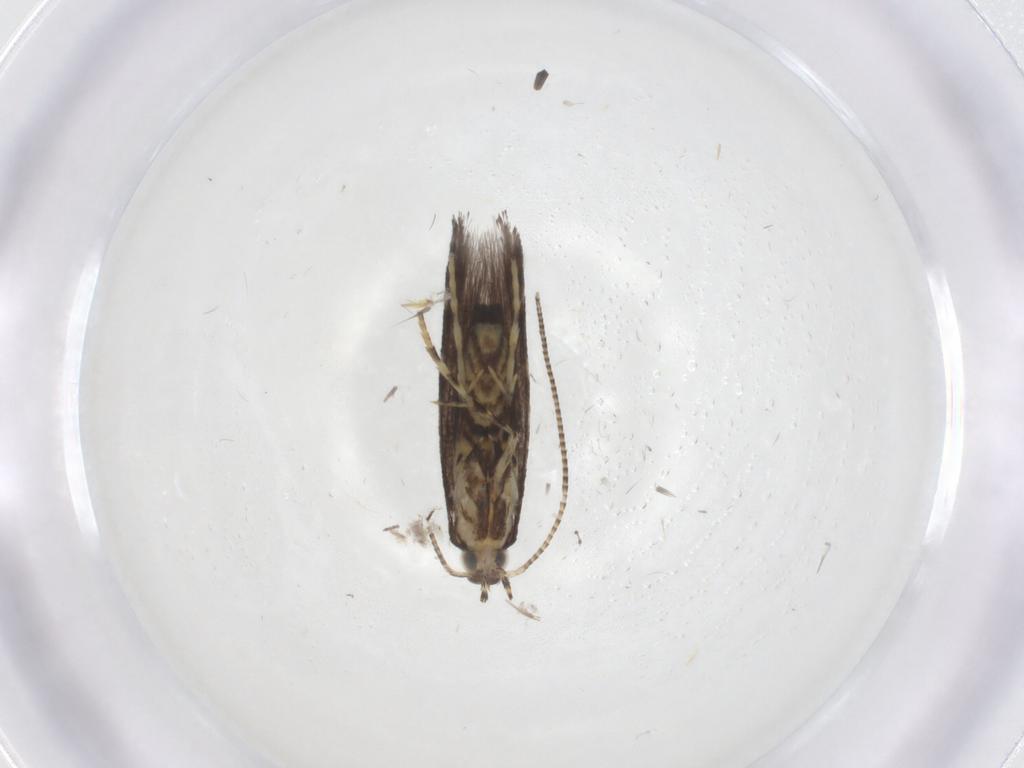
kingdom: Animalia
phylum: Arthropoda
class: Insecta
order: Lepidoptera
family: Gracillariidae
